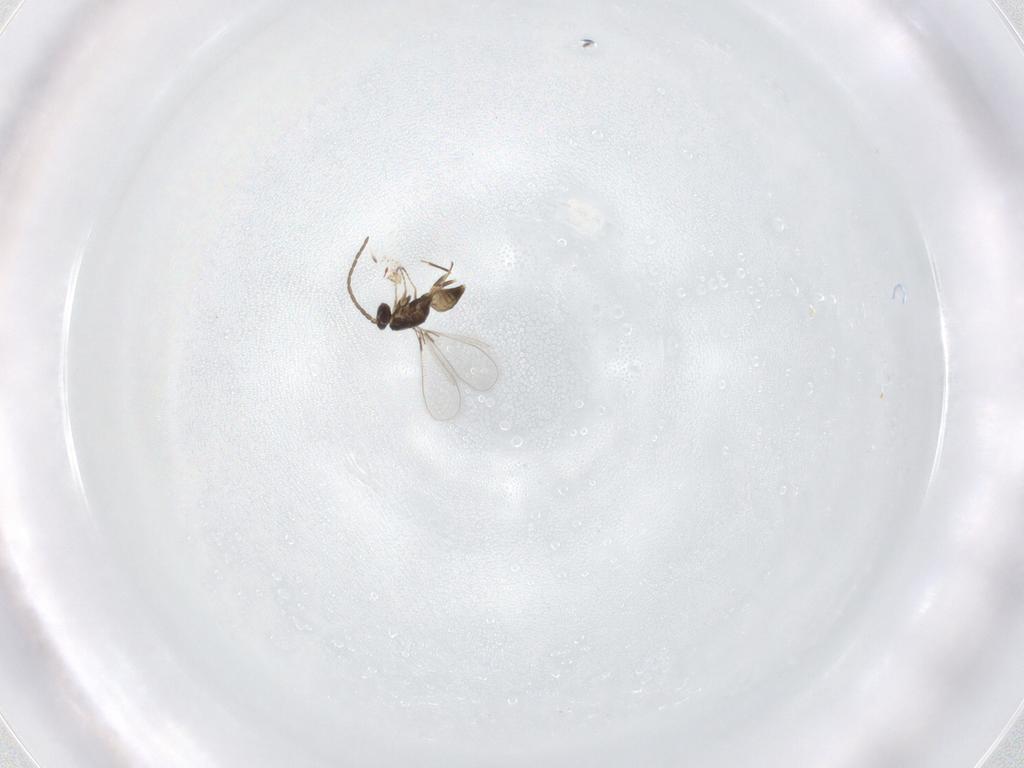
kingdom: Animalia
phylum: Arthropoda
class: Insecta
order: Hymenoptera
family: Mymaridae
